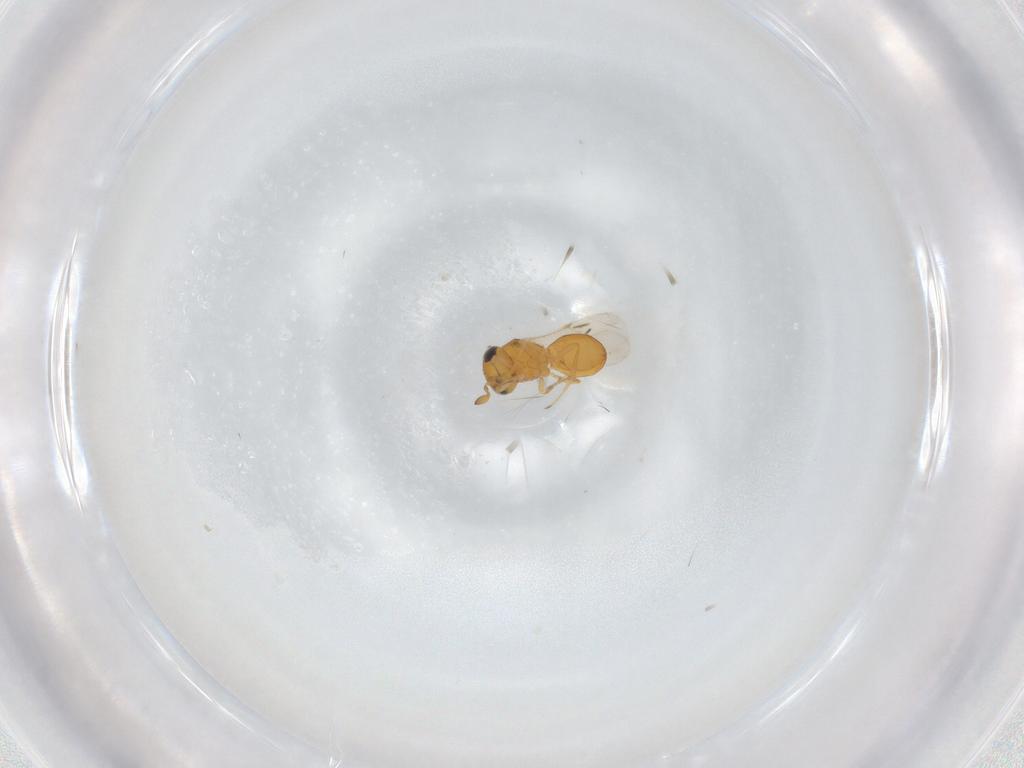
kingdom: Animalia
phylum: Arthropoda
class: Insecta
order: Hymenoptera
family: Scelionidae
